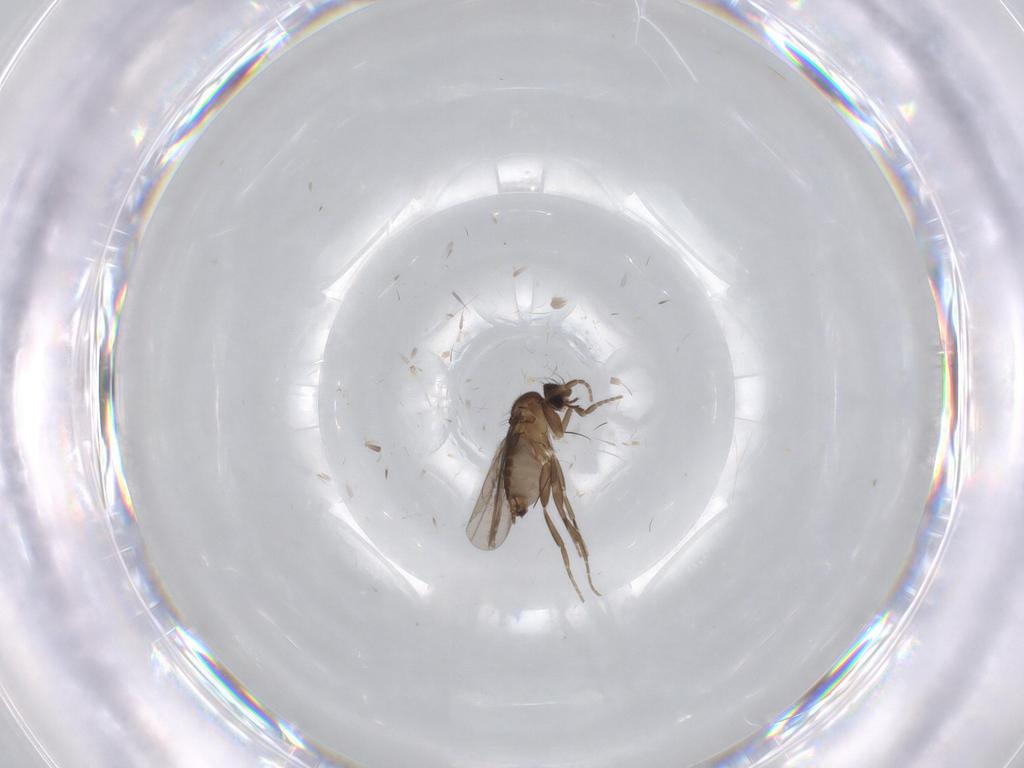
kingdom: Animalia
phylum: Arthropoda
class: Insecta
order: Diptera
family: Phoridae
